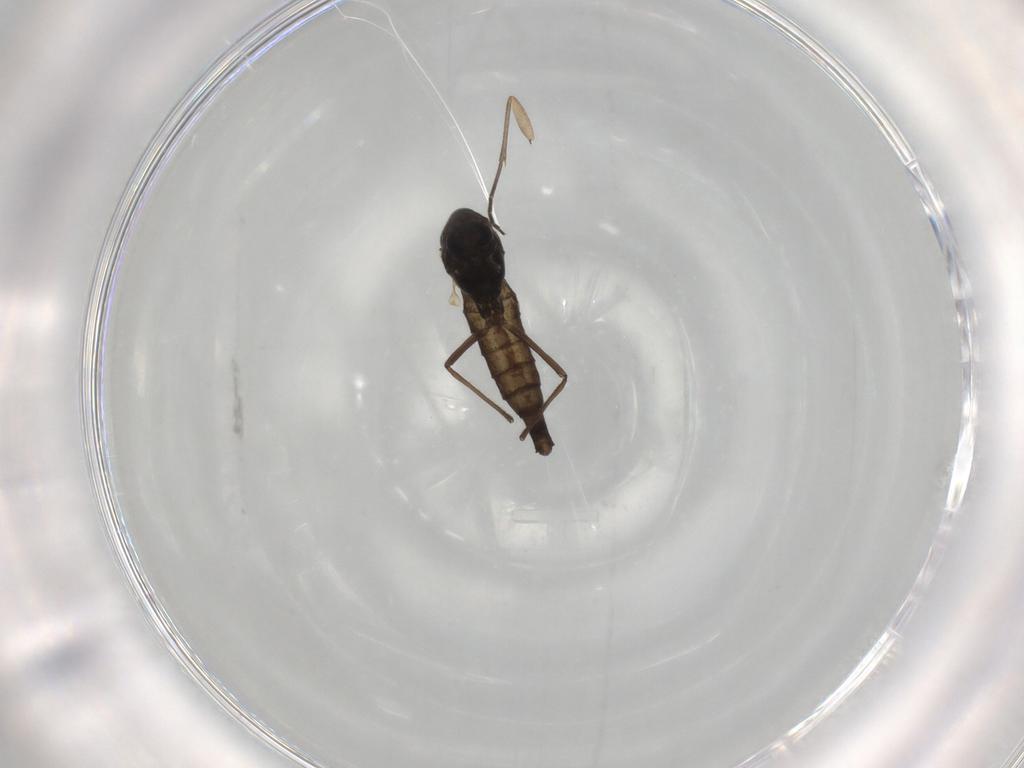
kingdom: Animalia
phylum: Arthropoda
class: Insecta
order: Diptera
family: Chironomidae
